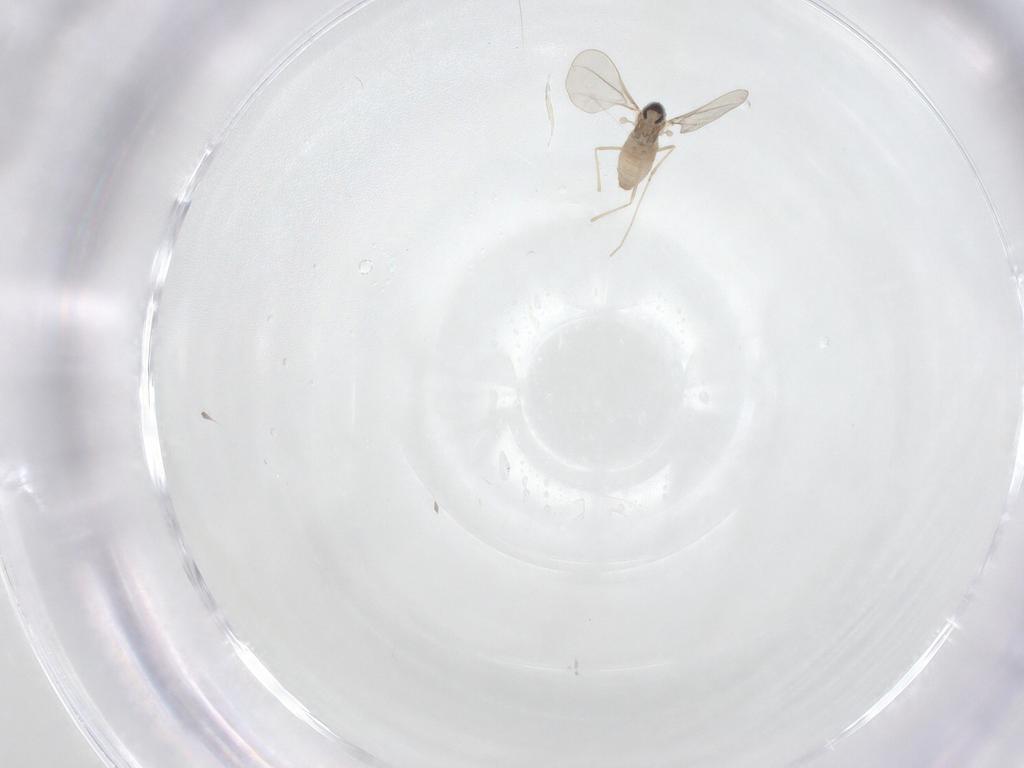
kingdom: Animalia
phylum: Arthropoda
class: Insecta
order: Diptera
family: Cecidomyiidae
